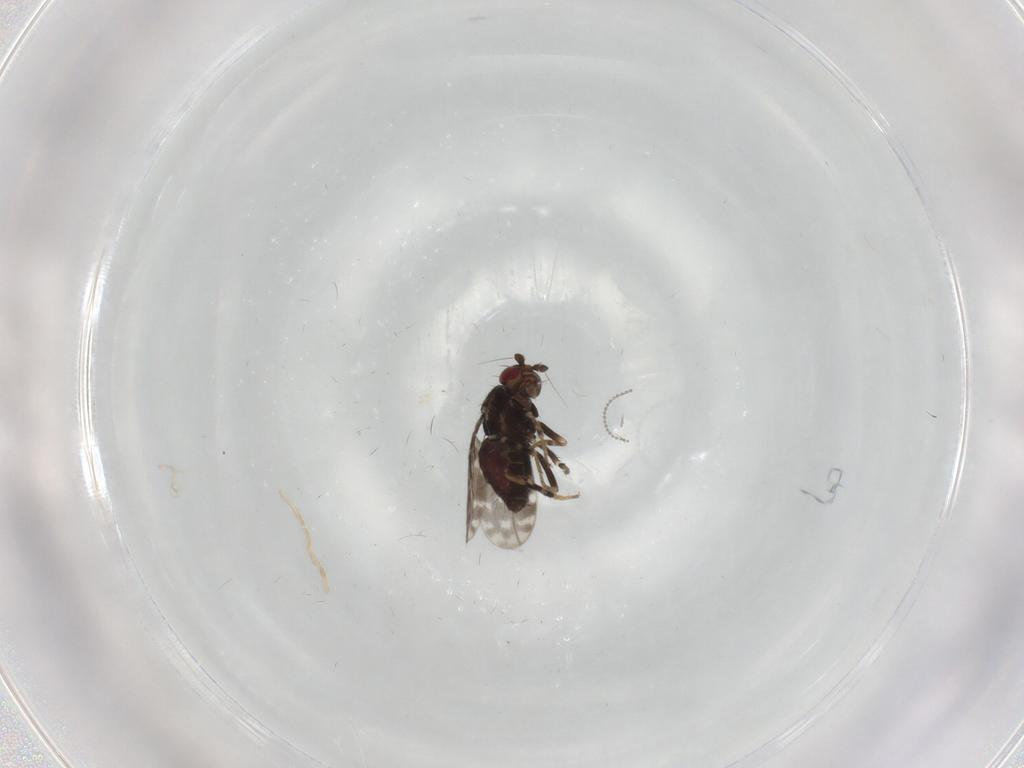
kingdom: Animalia
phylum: Arthropoda
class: Insecta
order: Diptera
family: Sphaeroceridae
